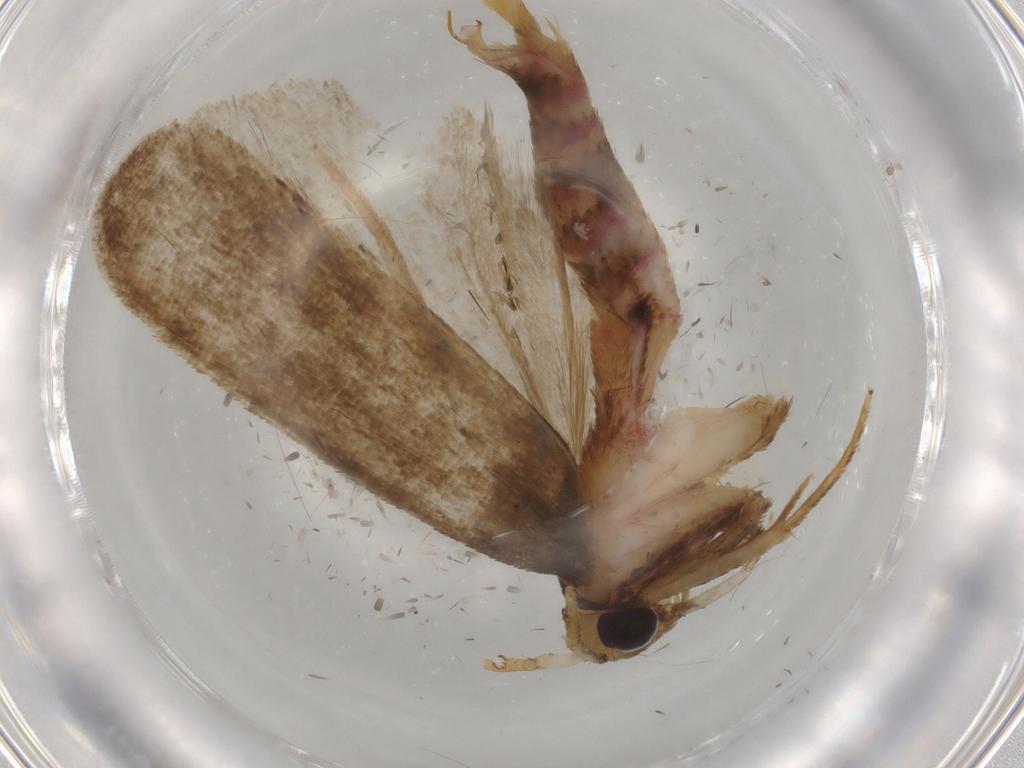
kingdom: Animalia
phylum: Arthropoda
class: Insecta
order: Lepidoptera
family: Autostichidae
